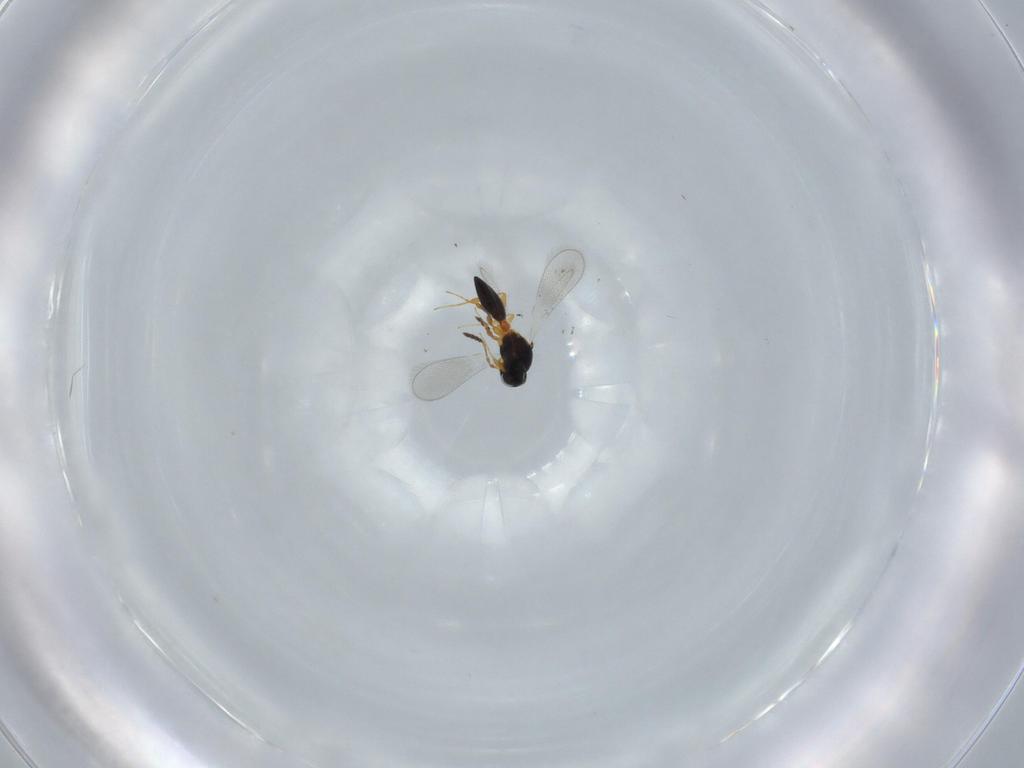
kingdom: Animalia
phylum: Arthropoda
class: Insecta
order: Hymenoptera
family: Platygastridae
